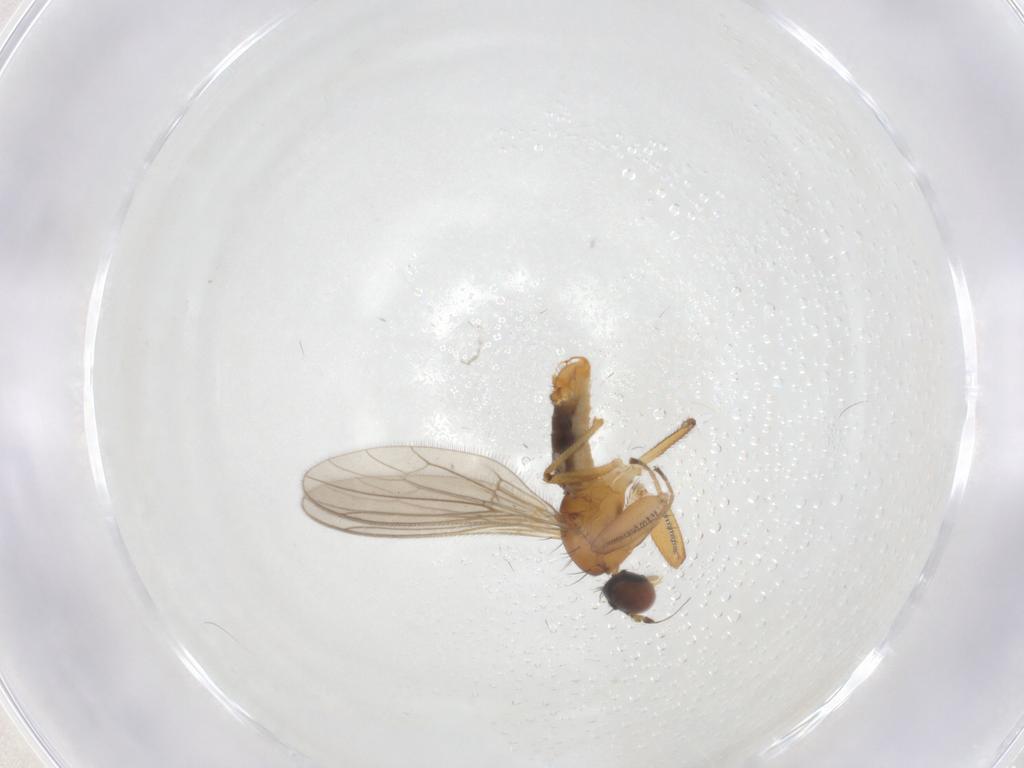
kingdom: Animalia
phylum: Arthropoda
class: Insecta
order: Diptera
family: Empididae
